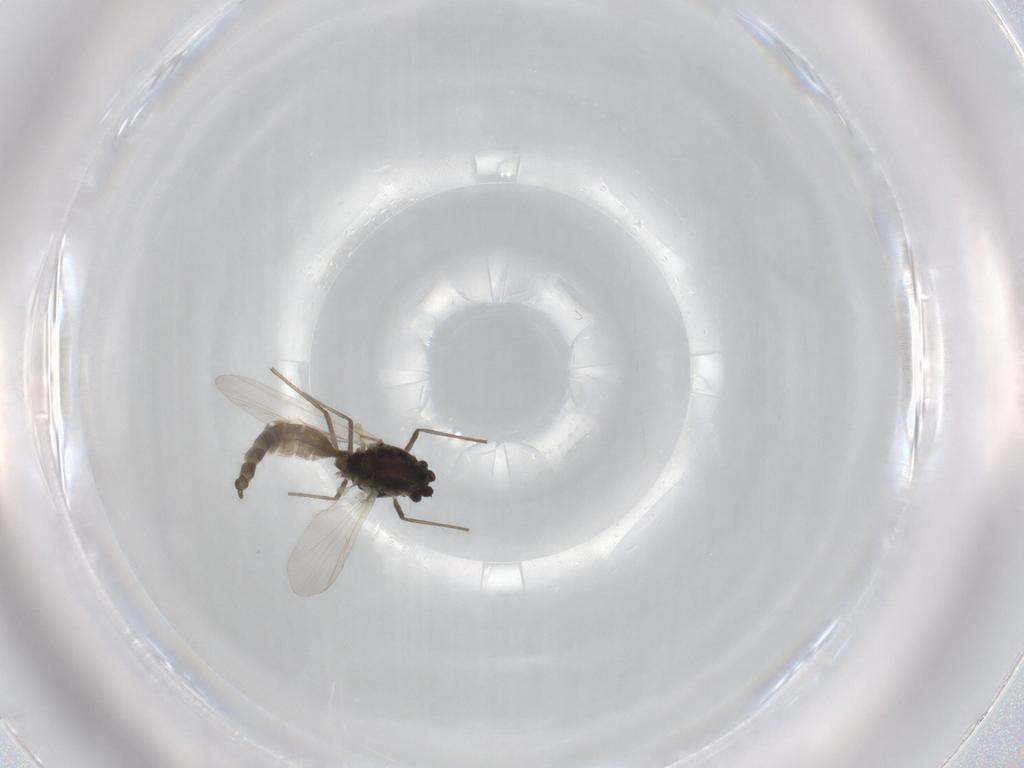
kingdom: Animalia
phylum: Arthropoda
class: Insecta
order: Diptera
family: Chironomidae
